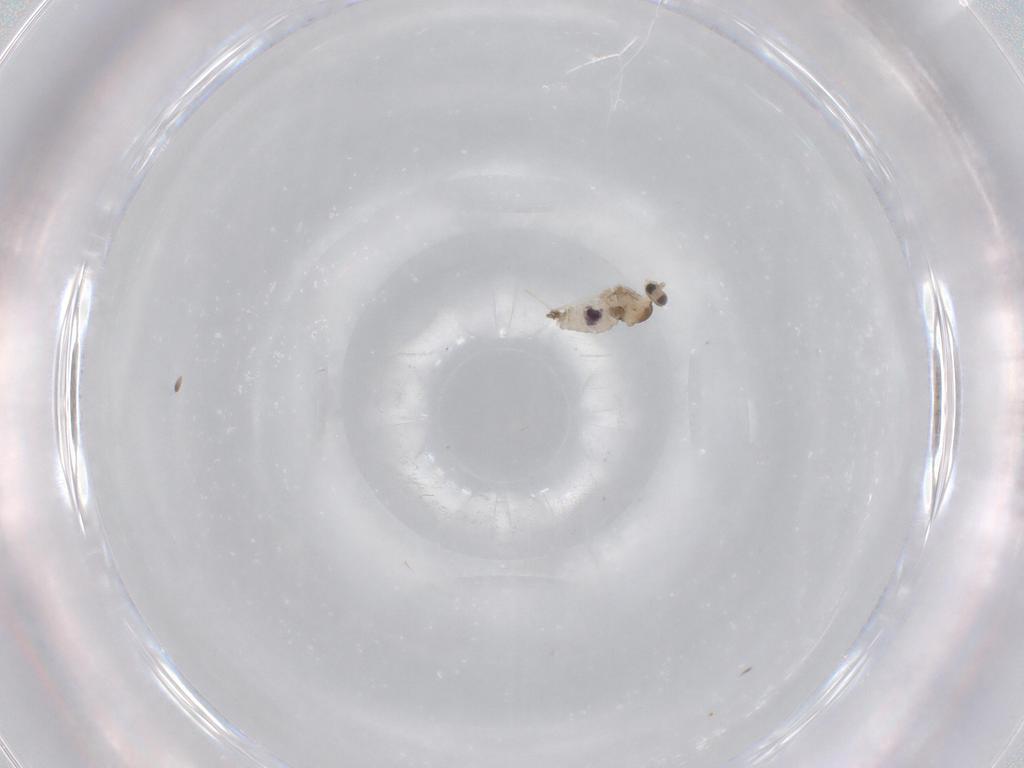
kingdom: Animalia
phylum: Arthropoda
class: Insecta
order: Diptera
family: Cecidomyiidae
